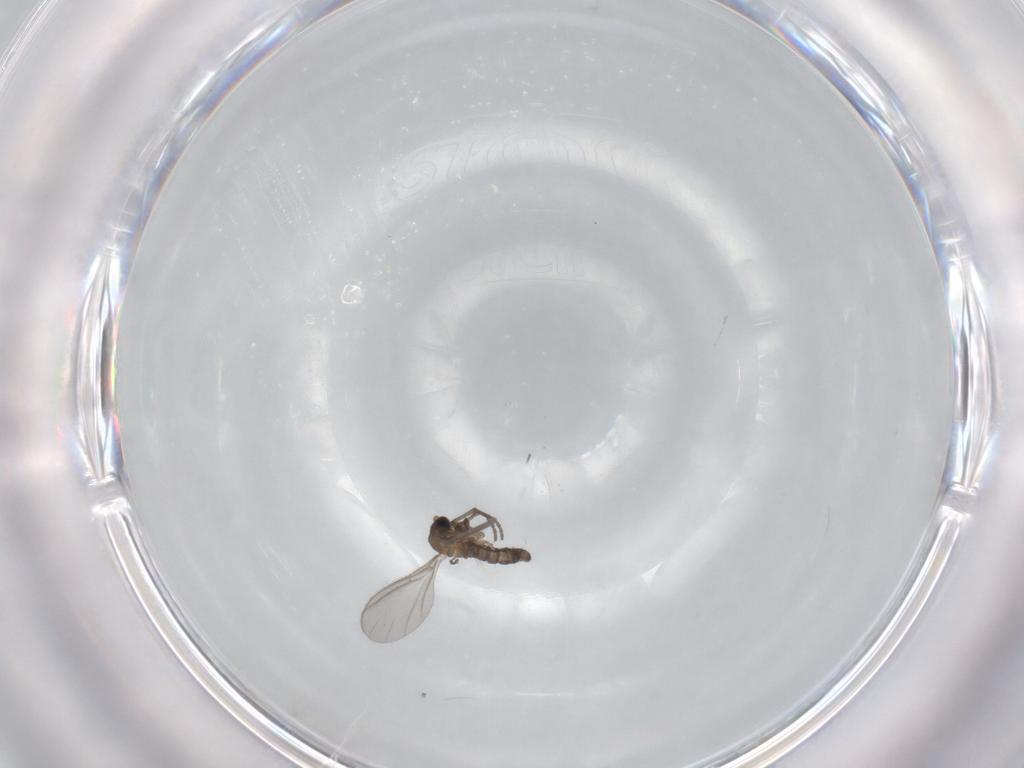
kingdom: Animalia
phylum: Arthropoda
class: Insecta
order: Diptera
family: Sciaridae
